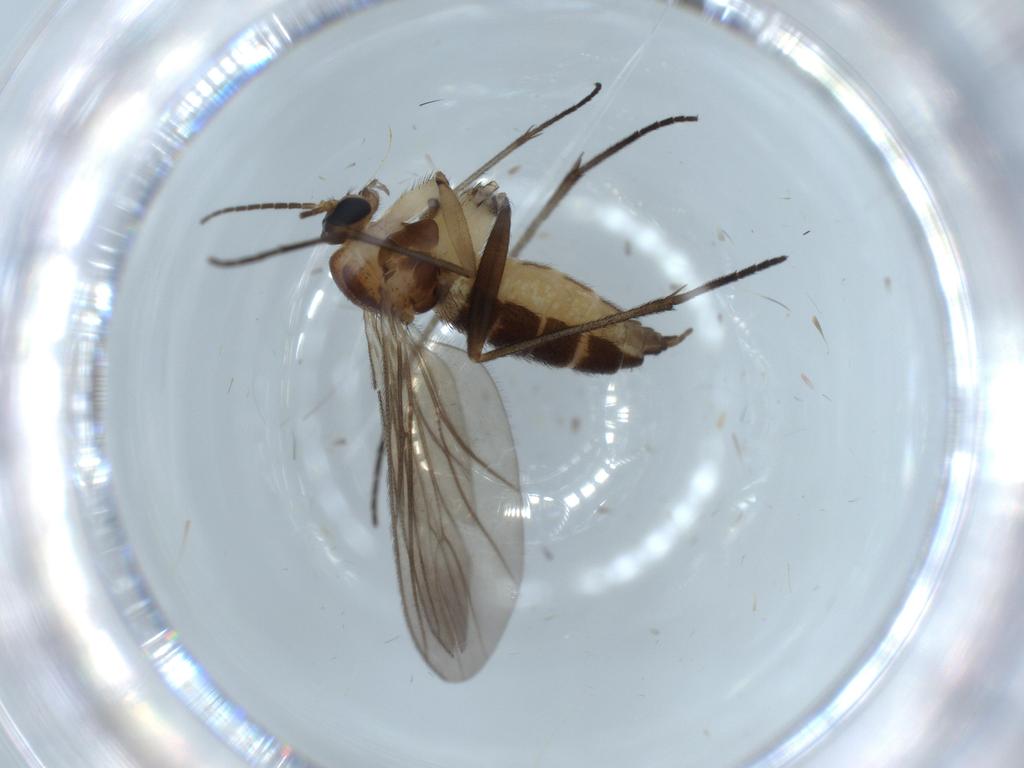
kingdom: Animalia
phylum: Arthropoda
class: Insecta
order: Diptera
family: Sciaridae
